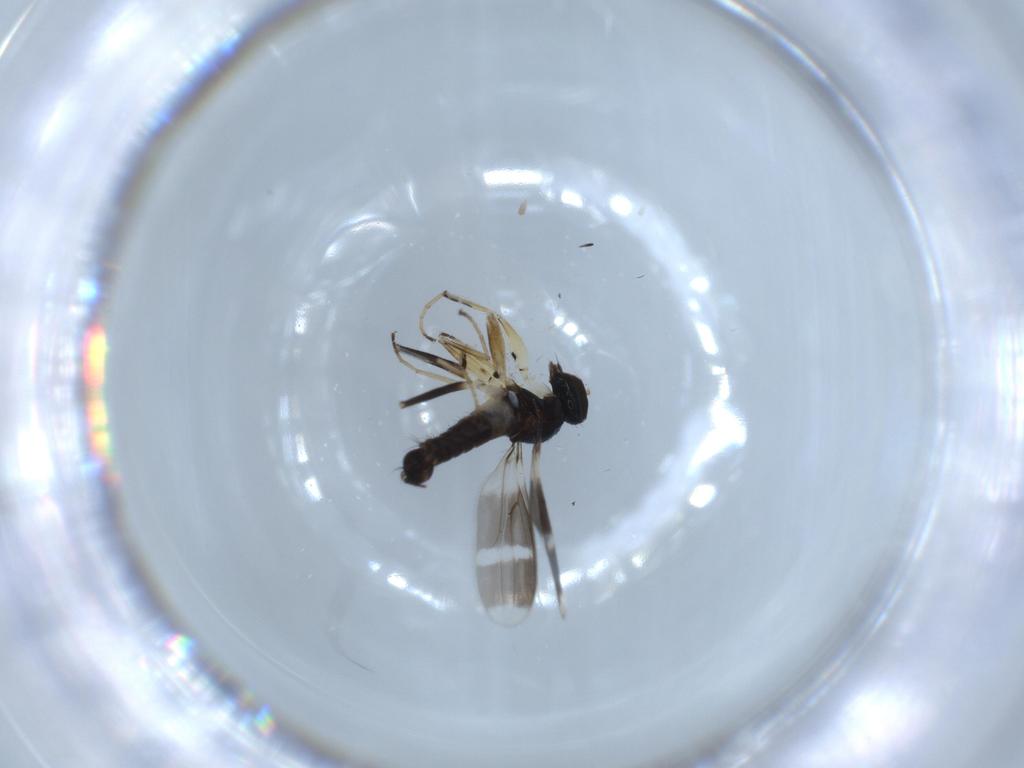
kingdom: Animalia
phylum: Arthropoda
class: Insecta
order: Diptera
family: Hybotidae
